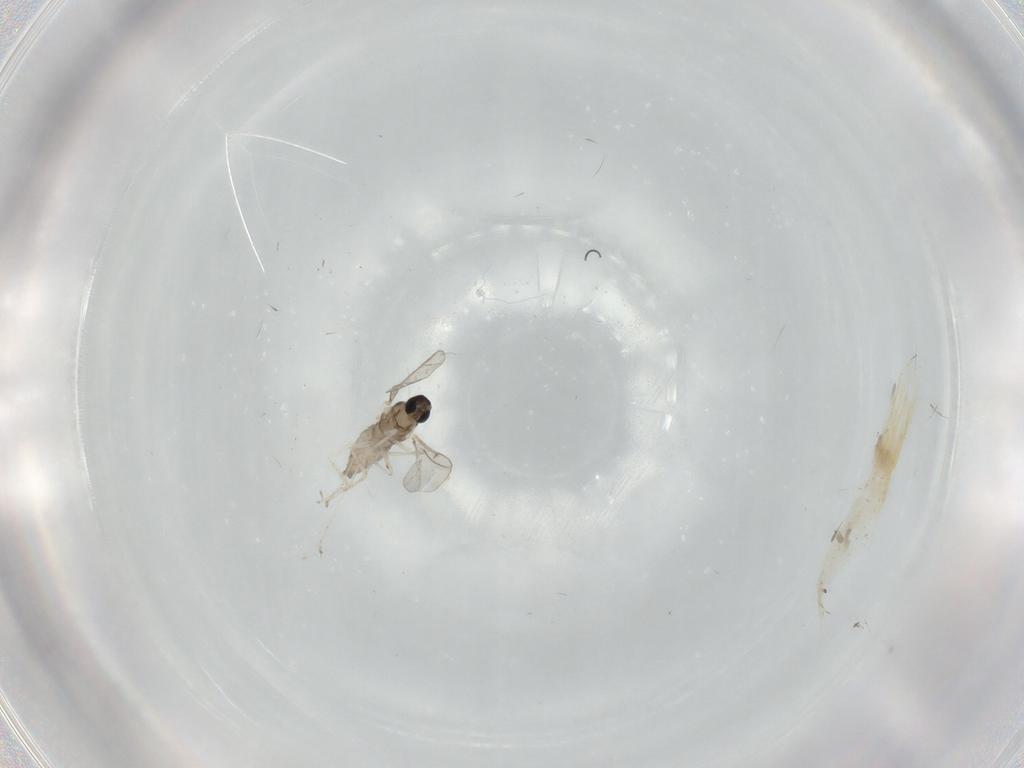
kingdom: Animalia
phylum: Arthropoda
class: Insecta
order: Diptera
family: Cecidomyiidae
